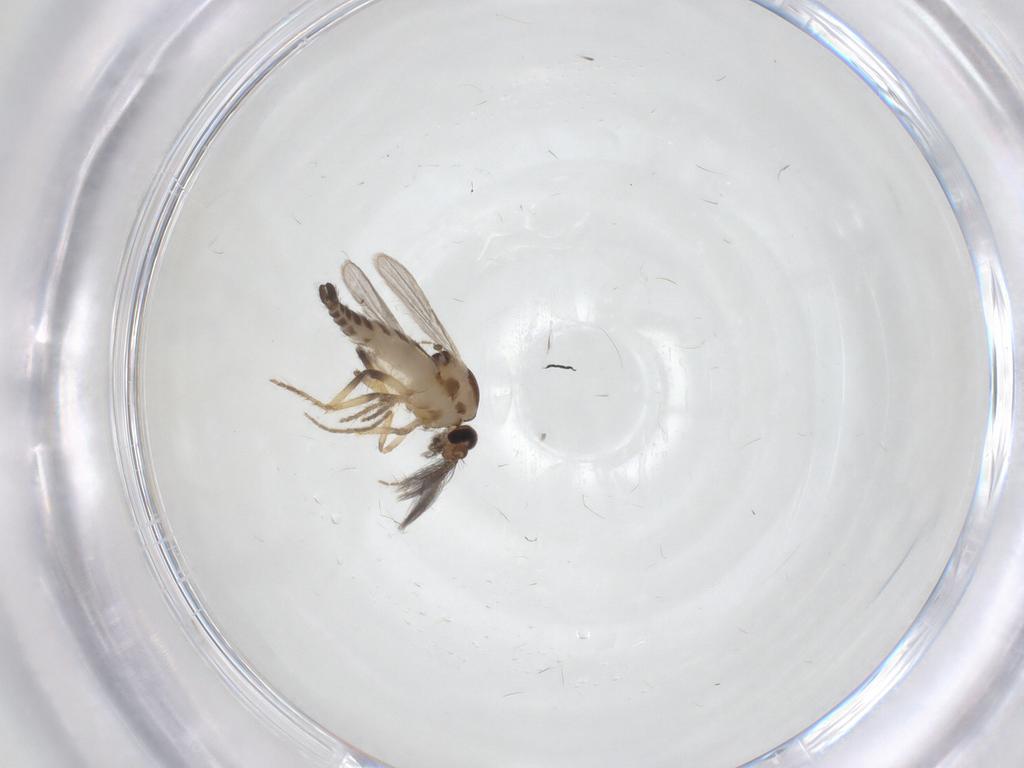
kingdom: Animalia
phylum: Arthropoda
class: Insecta
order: Diptera
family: Ceratopogonidae
